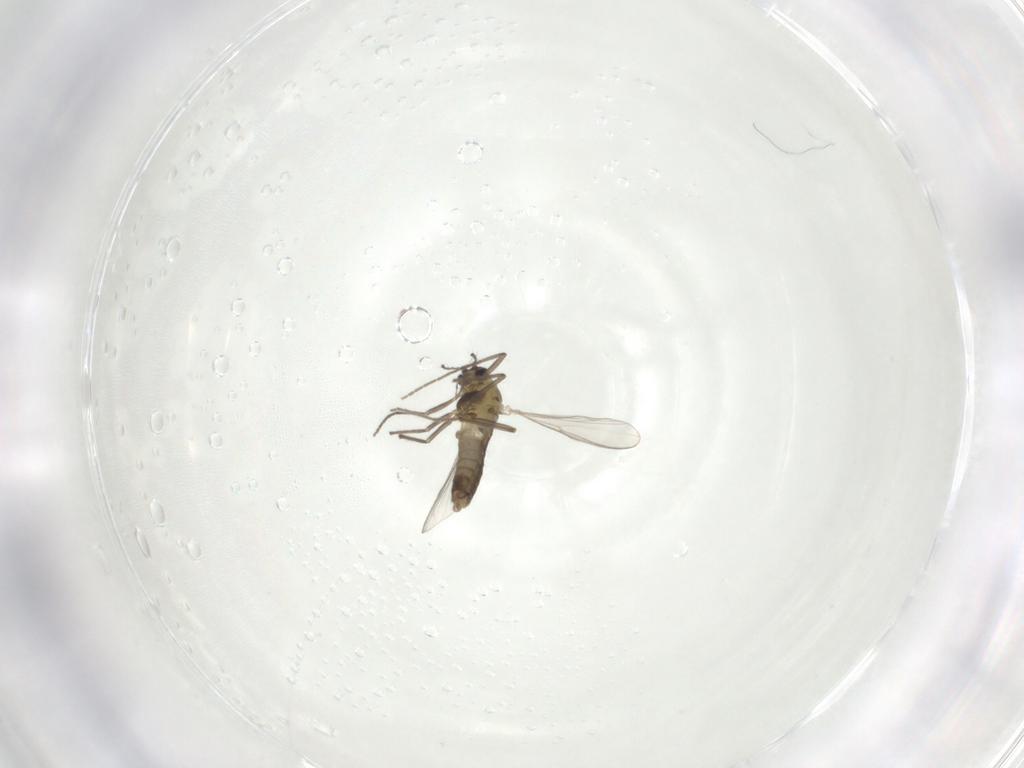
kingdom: Animalia
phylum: Arthropoda
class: Insecta
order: Diptera
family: Chironomidae
